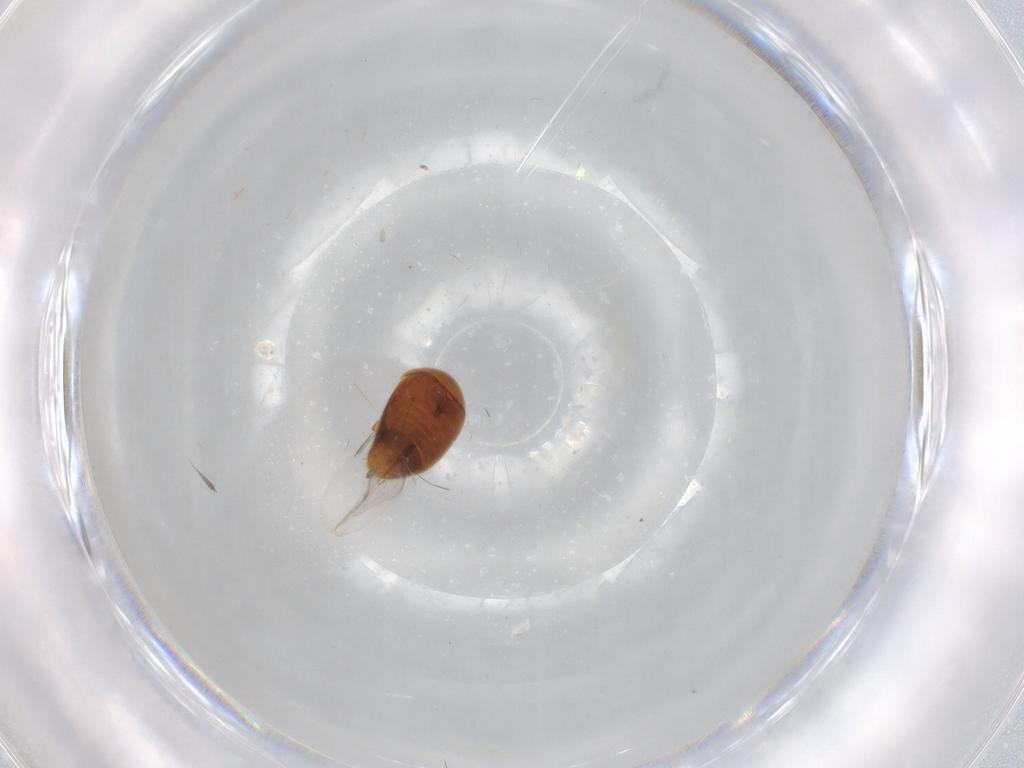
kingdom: Animalia
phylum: Arthropoda
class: Insecta
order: Coleoptera
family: Corylophidae
